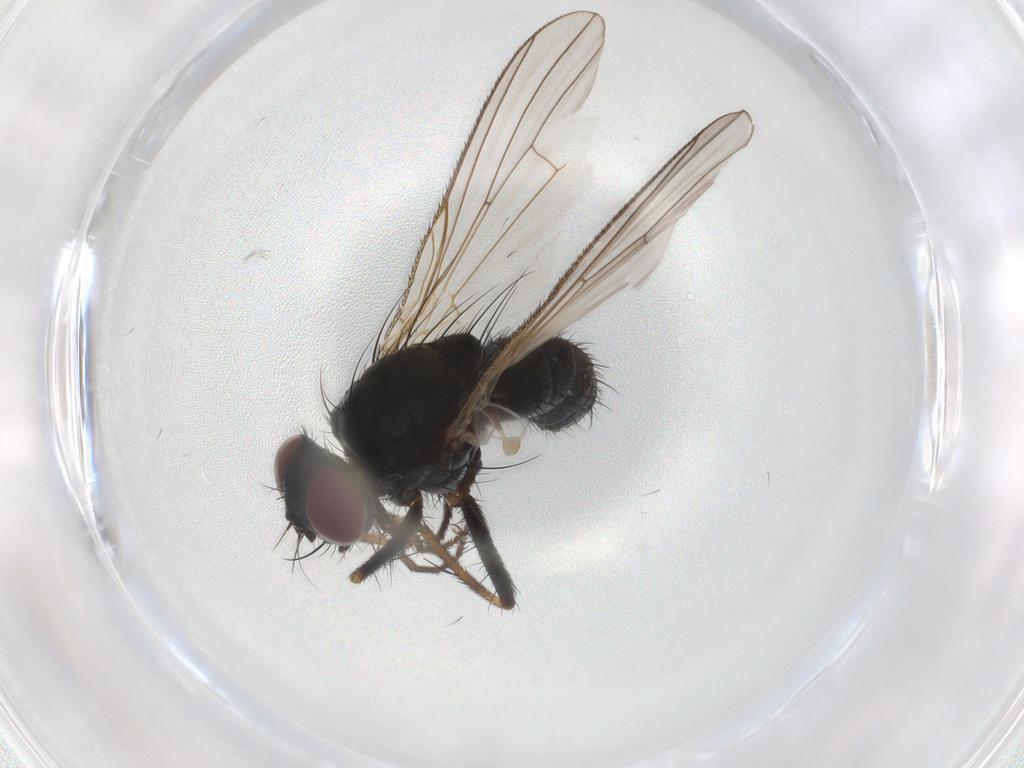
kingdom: Animalia
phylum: Arthropoda
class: Insecta
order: Diptera
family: Muscidae
